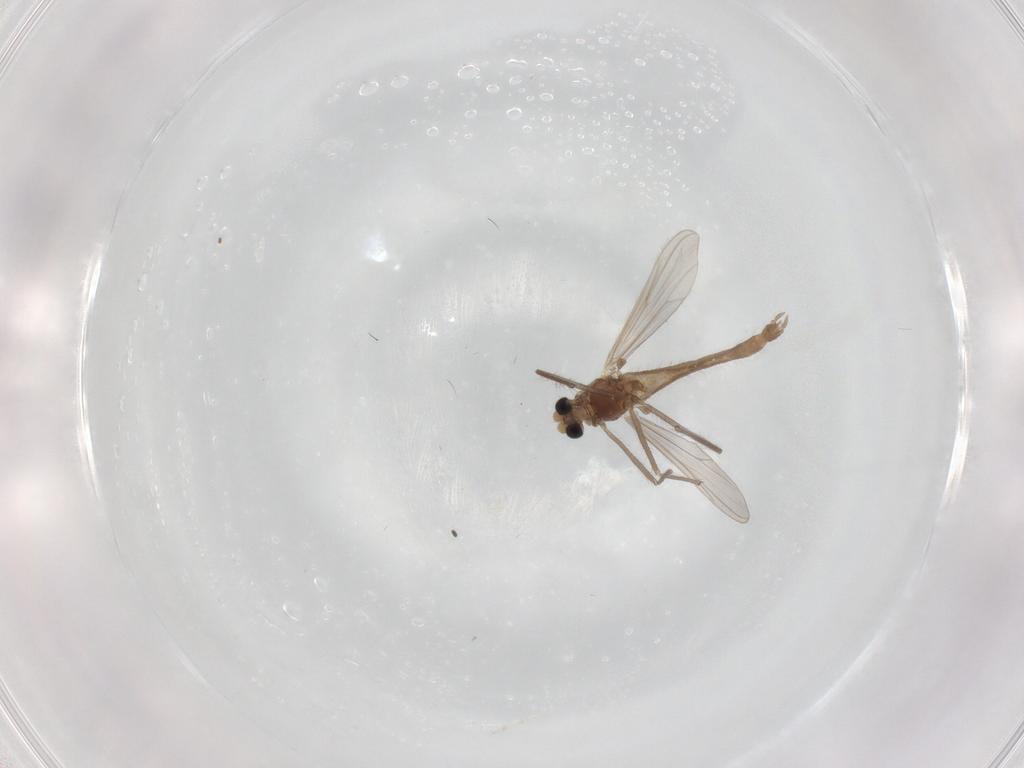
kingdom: Animalia
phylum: Arthropoda
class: Insecta
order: Diptera
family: Chironomidae
